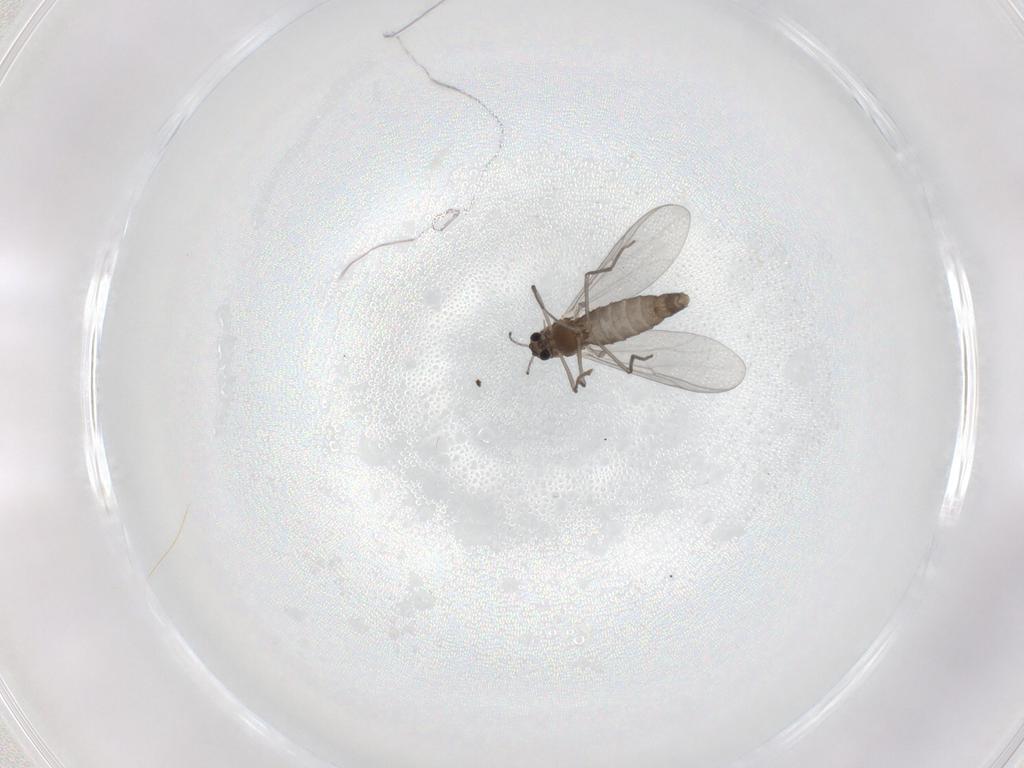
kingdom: Animalia
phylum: Arthropoda
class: Insecta
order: Diptera
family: Chironomidae
